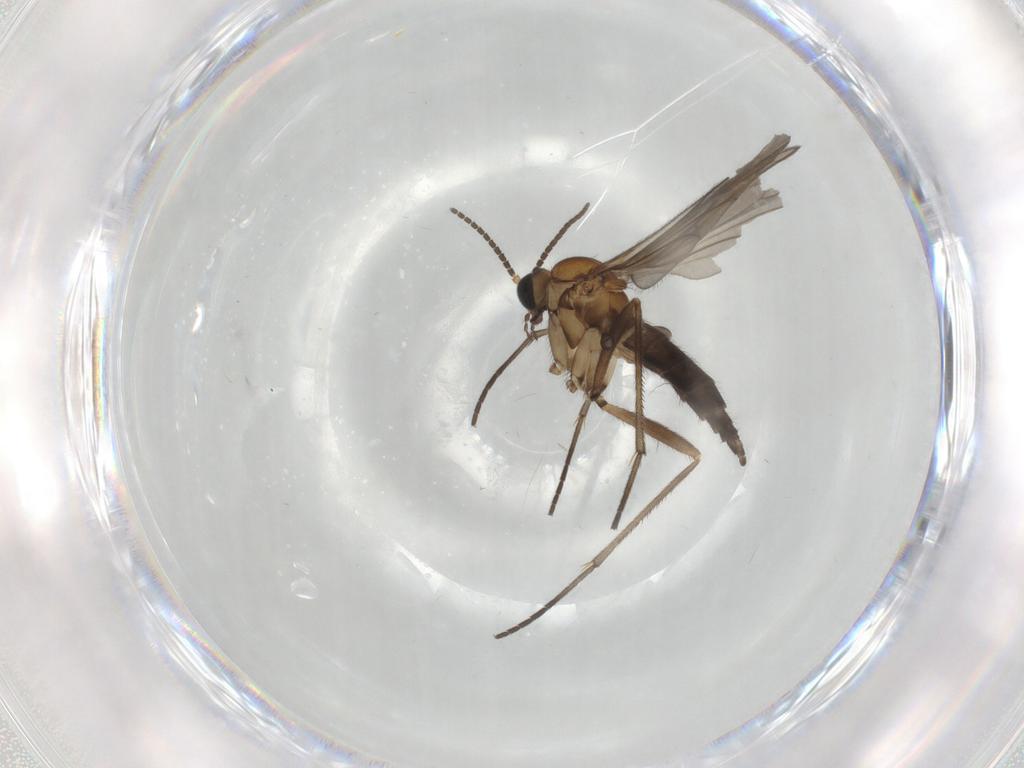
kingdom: Animalia
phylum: Arthropoda
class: Insecta
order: Diptera
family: Sciaridae
